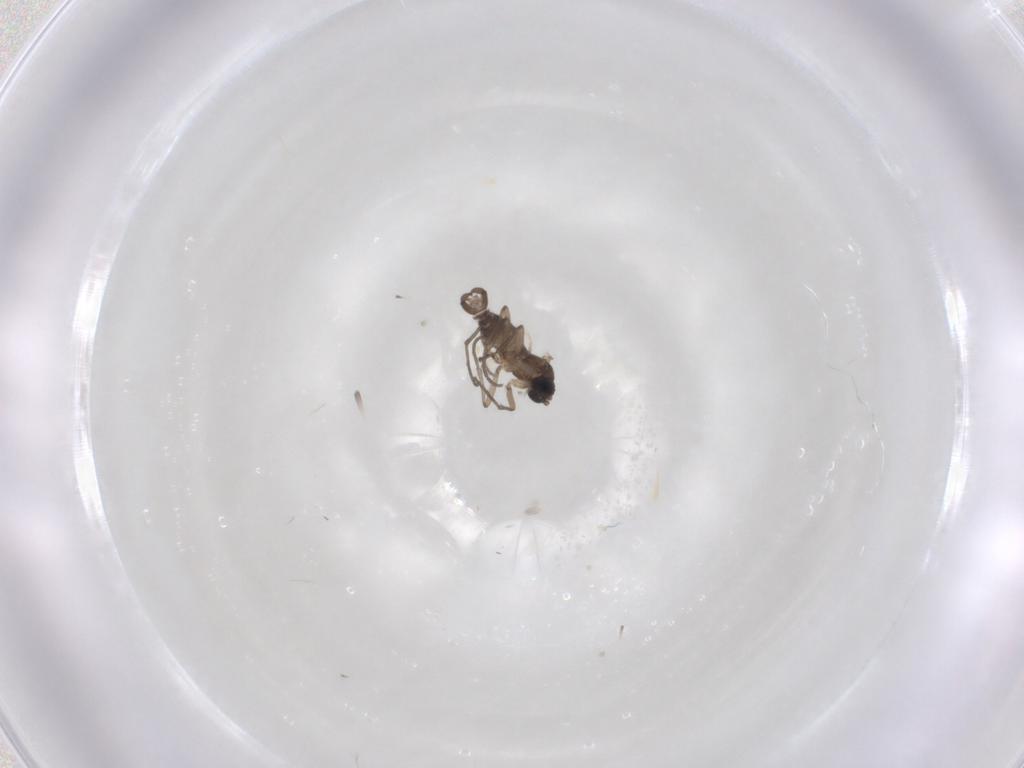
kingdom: Animalia
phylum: Arthropoda
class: Insecta
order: Diptera
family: Sciaridae
